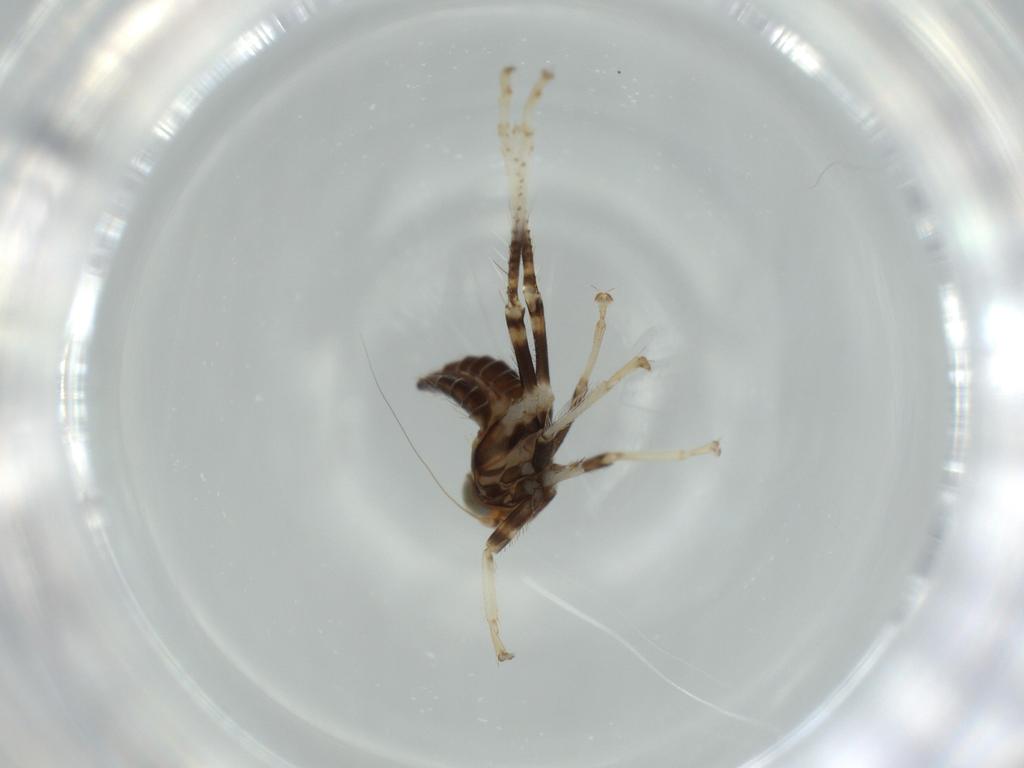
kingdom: Animalia
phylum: Arthropoda
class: Insecta
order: Hemiptera
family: Cicadellidae
